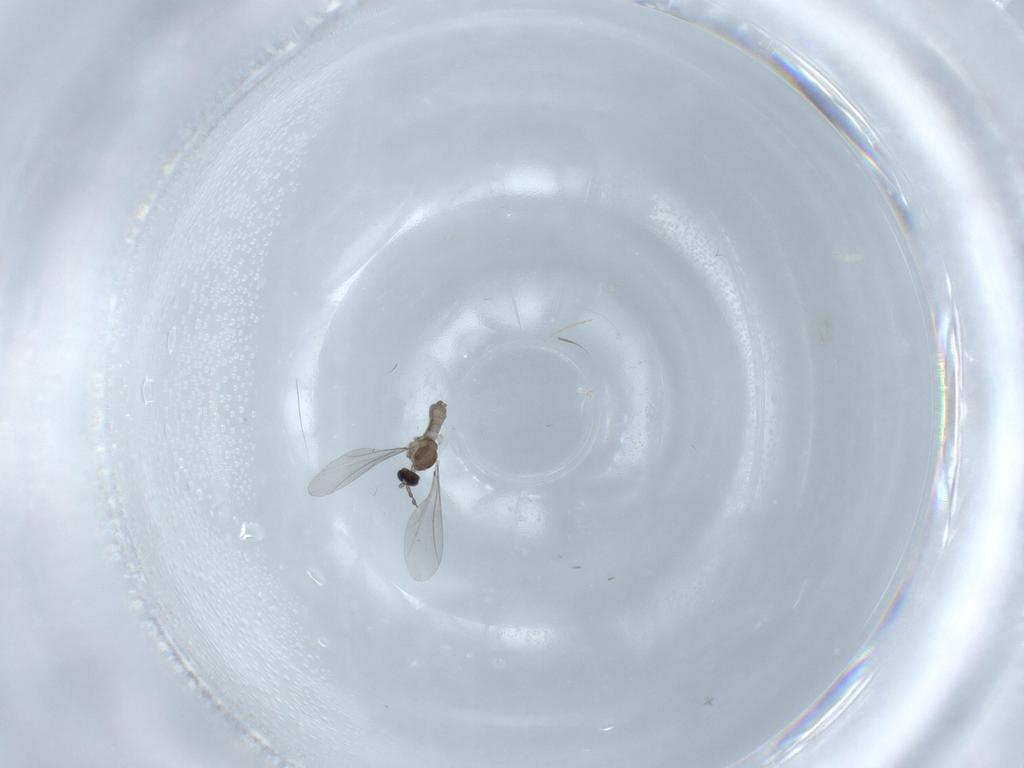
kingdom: Animalia
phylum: Arthropoda
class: Insecta
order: Diptera
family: Cecidomyiidae
